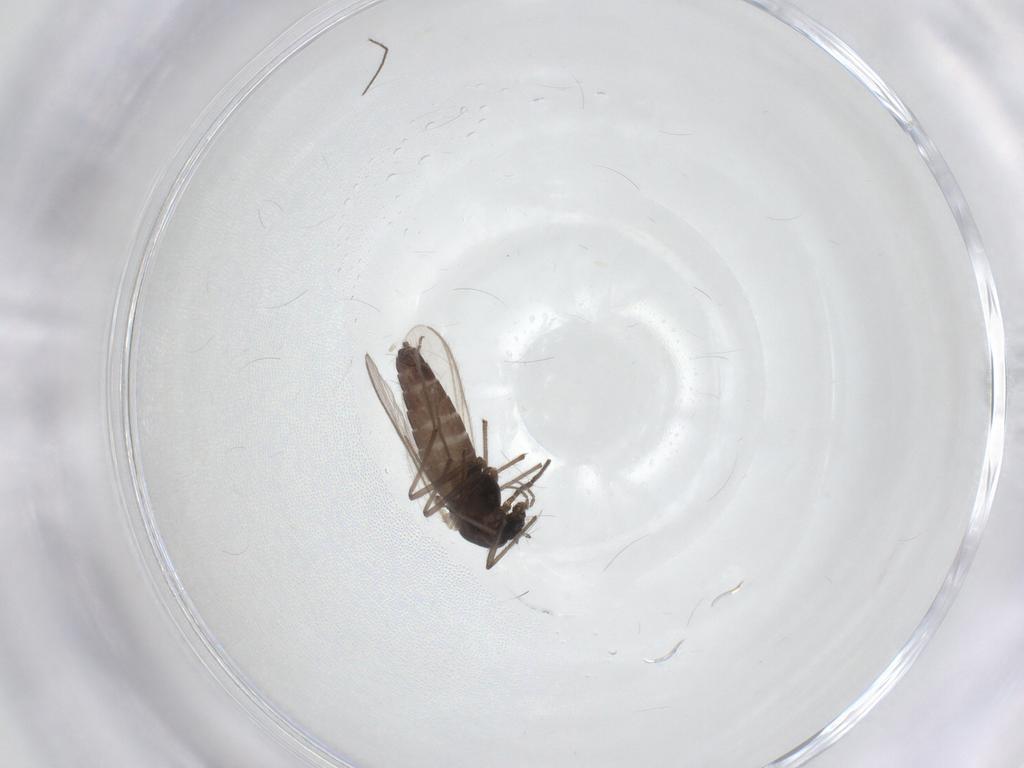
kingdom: Animalia
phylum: Arthropoda
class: Insecta
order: Diptera
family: Chironomidae
